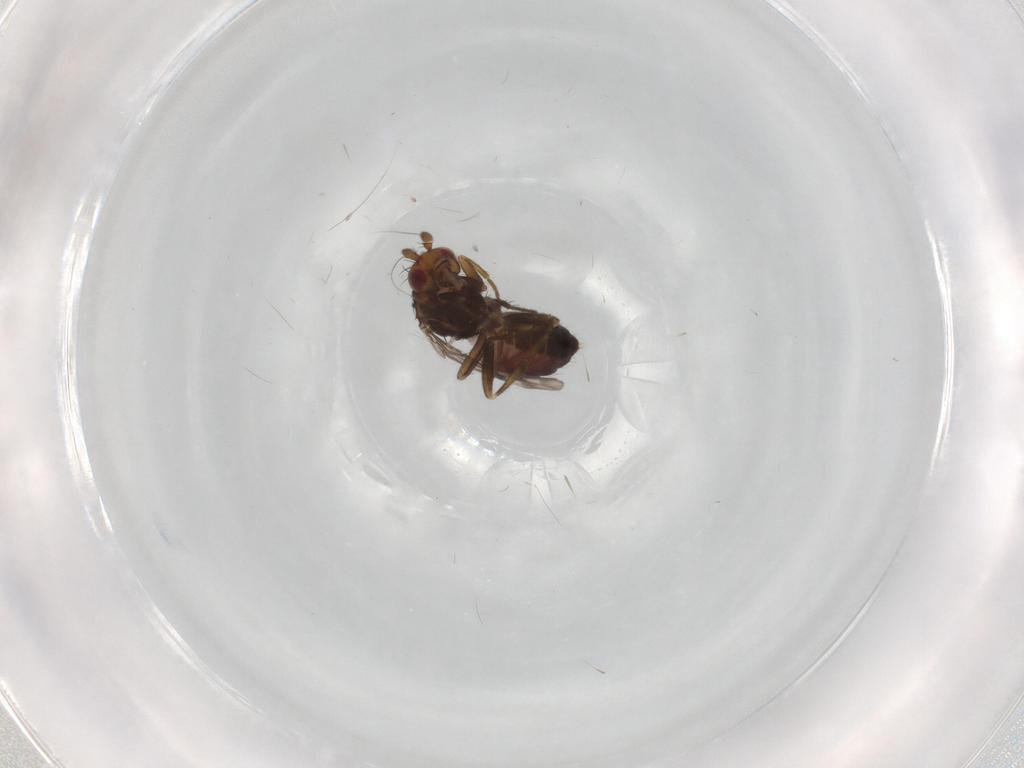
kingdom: Animalia
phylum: Arthropoda
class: Insecta
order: Diptera
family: Sphaeroceridae
